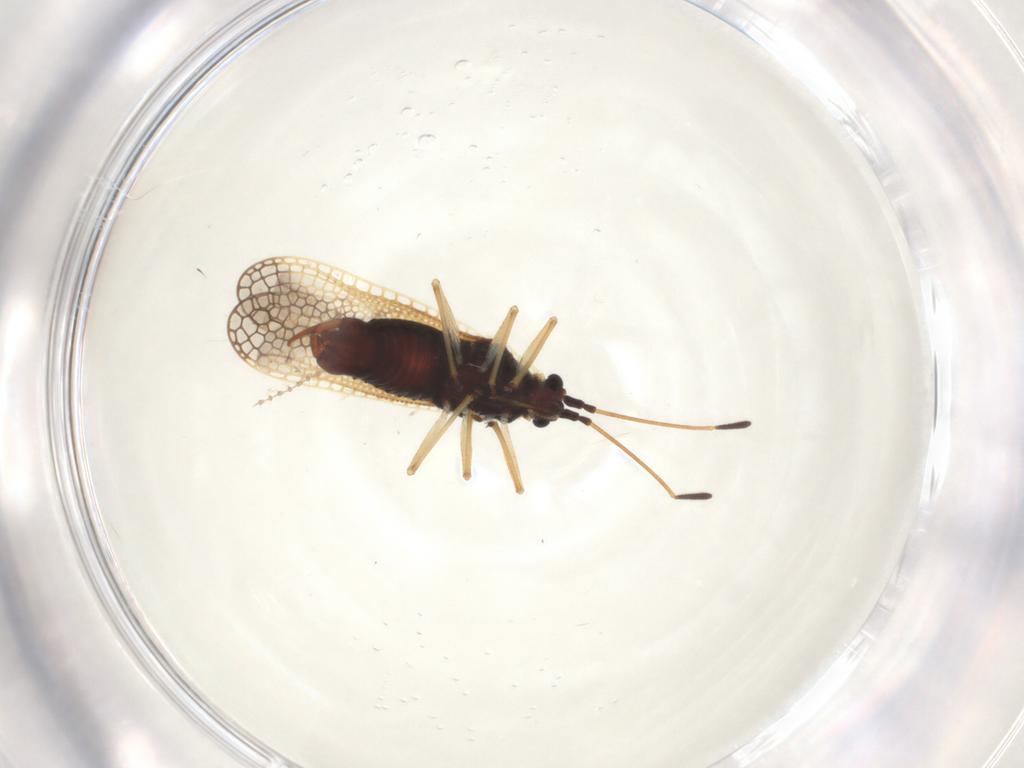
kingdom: Animalia
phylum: Arthropoda
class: Insecta
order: Hemiptera
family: Tingidae
